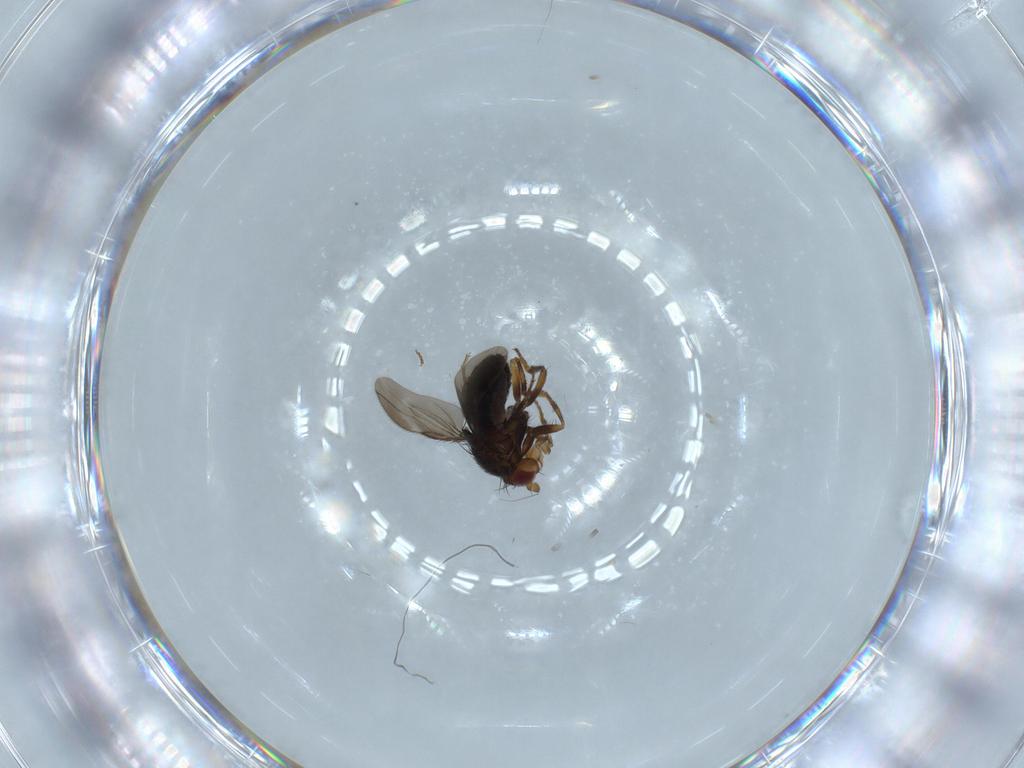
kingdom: Animalia
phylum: Arthropoda
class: Insecta
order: Diptera
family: Sphaeroceridae
